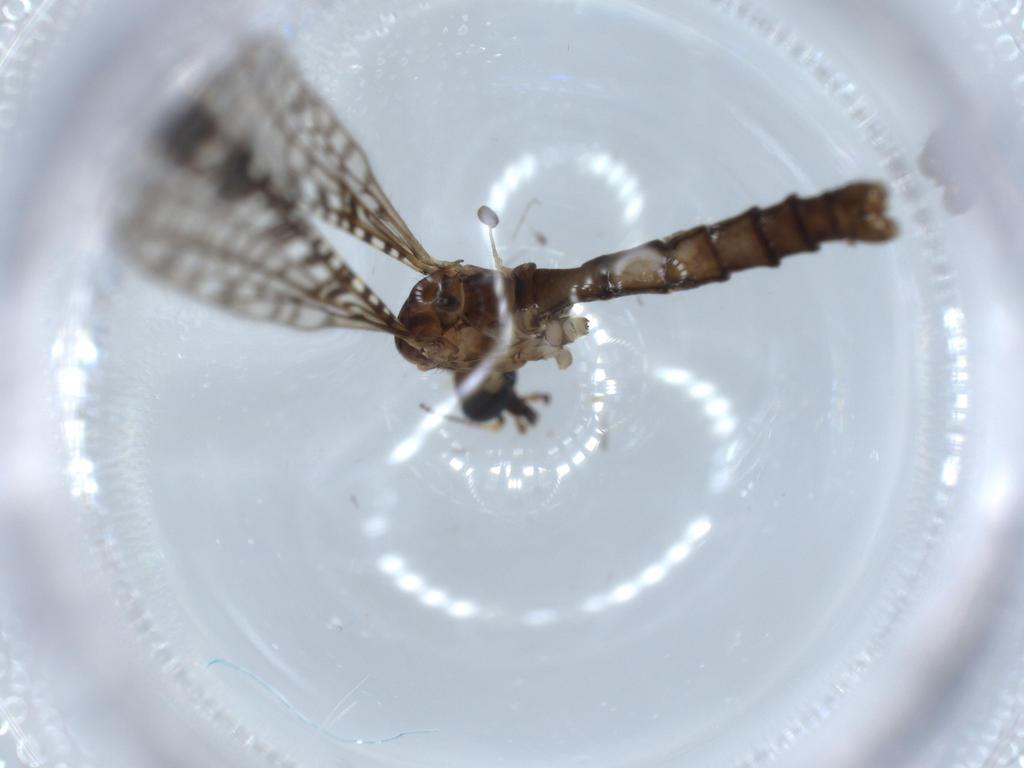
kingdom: Animalia
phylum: Arthropoda
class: Insecta
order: Diptera
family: Limoniidae
